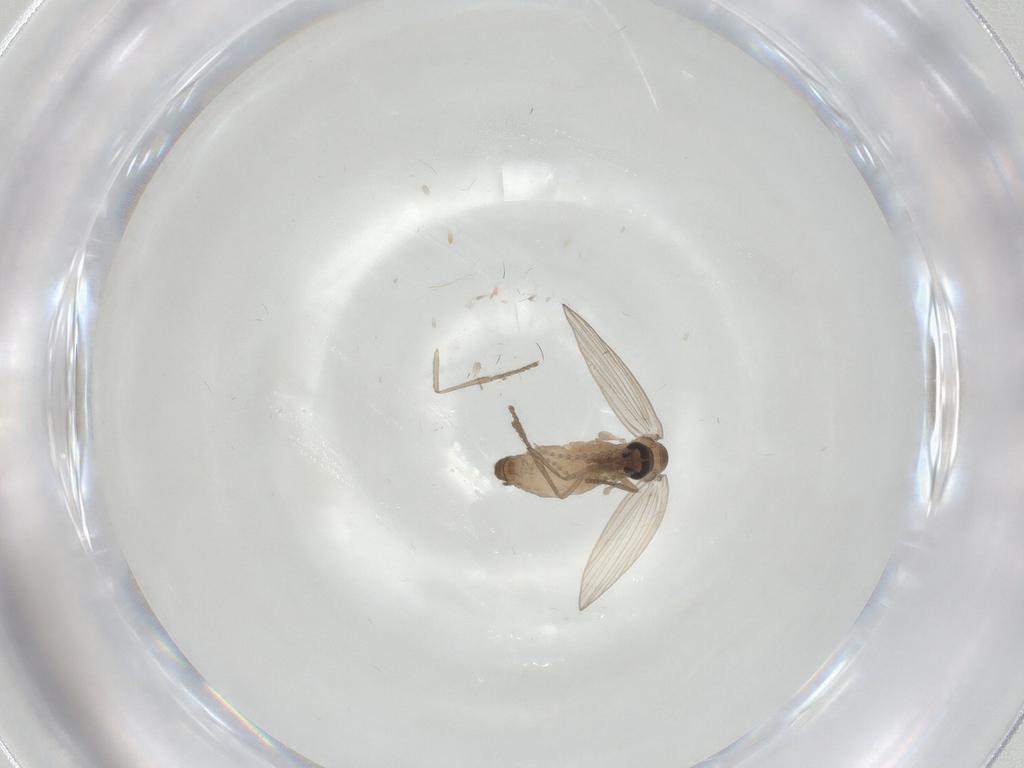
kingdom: Animalia
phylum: Arthropoda
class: Insecta
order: Diptera
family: Psychodidae
